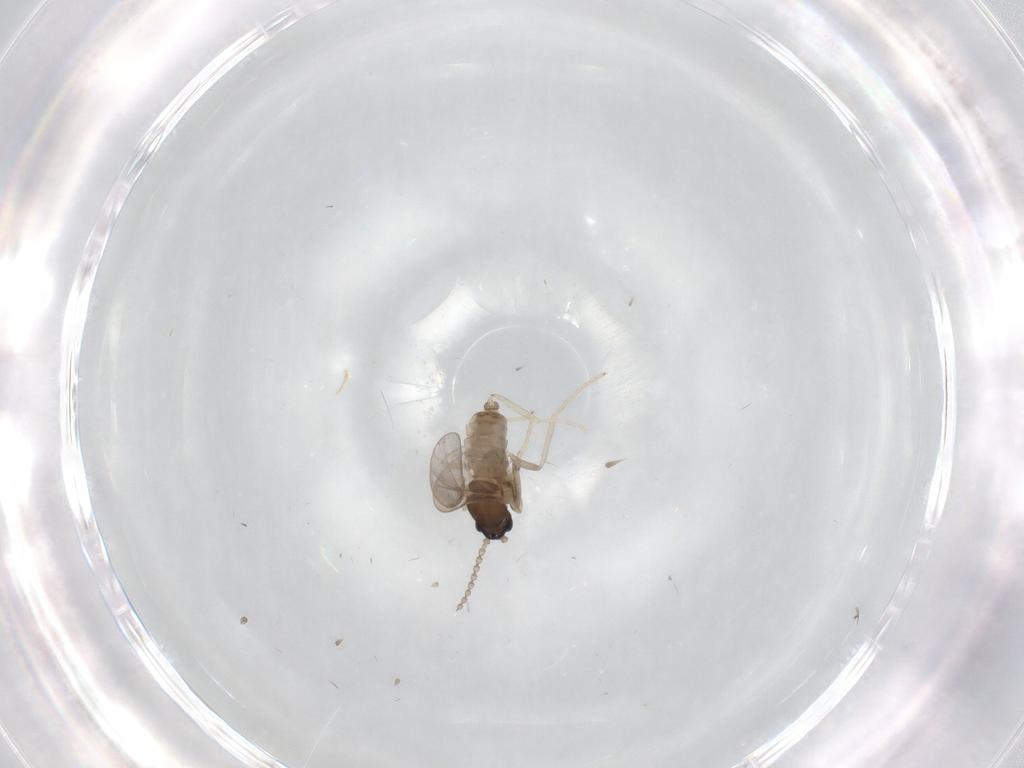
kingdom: Animalia
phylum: Arthropoda
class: Insecta
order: Diptera
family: Cecidomyiidae
